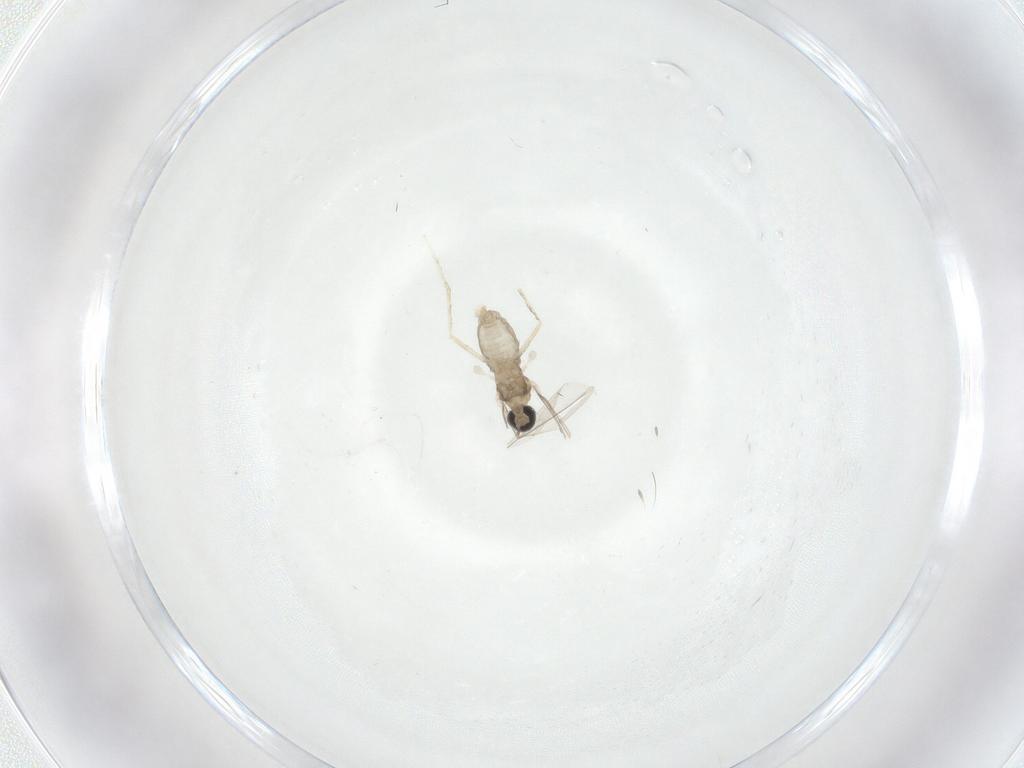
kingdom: Animalia
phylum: Arthropoda
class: Insecta
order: Diptera
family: Cecidomyiidae
